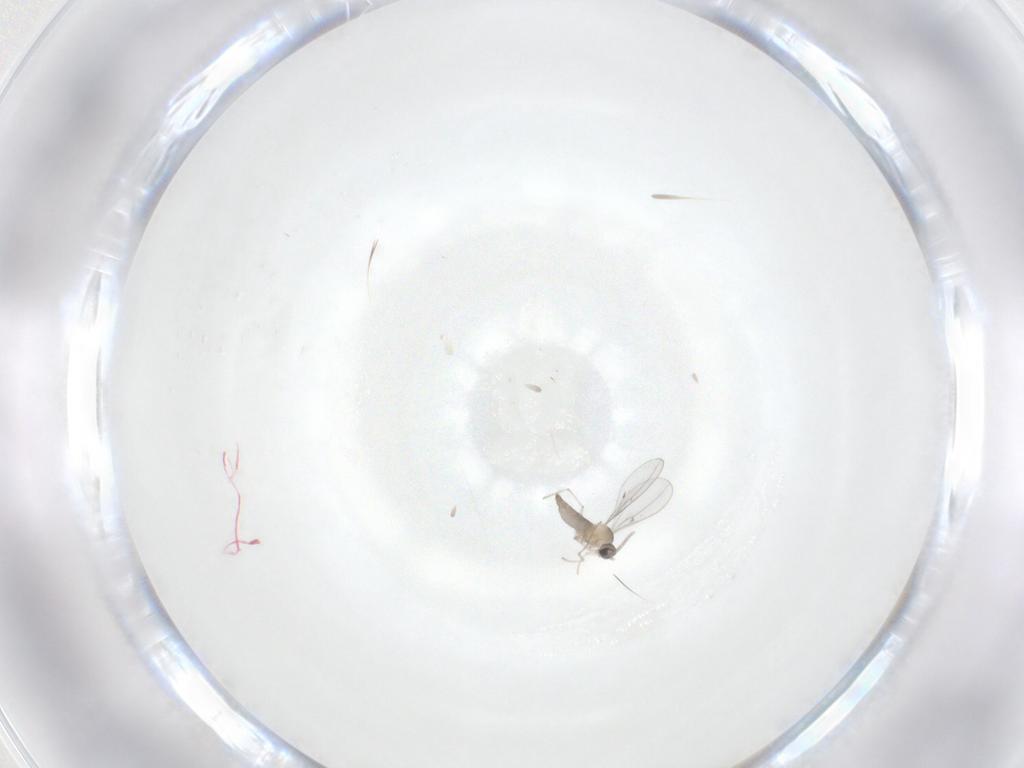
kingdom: Animalia
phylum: Arthropoda
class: Insecta
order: Diptera
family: Cecidomyiidae
